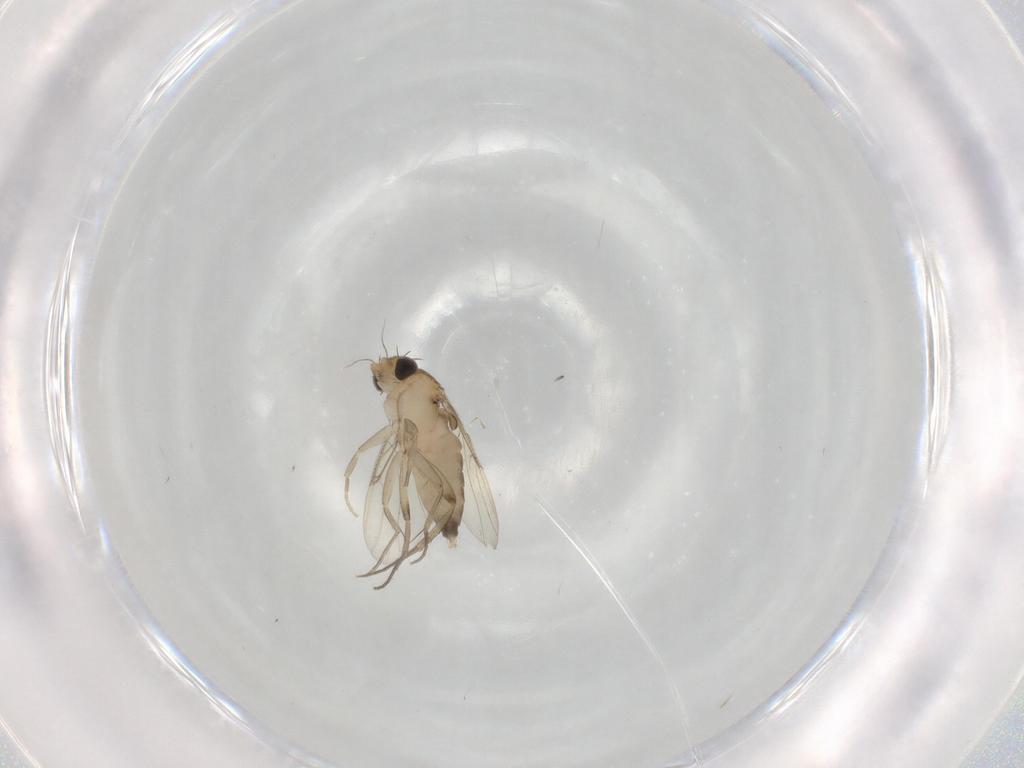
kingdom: Animalia
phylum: Arthropoda
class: Insecta
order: Diptera
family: Phoridae
